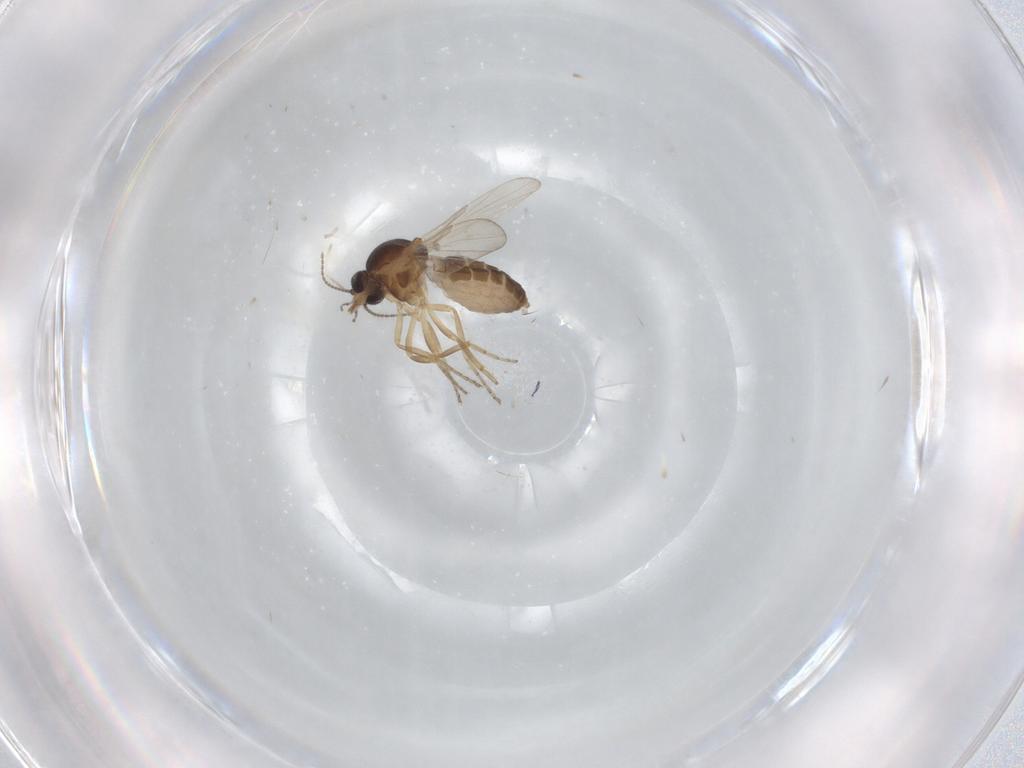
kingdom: Animalia
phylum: Arthropoda
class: Insecta
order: Diptera
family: Ceratopogonidae
